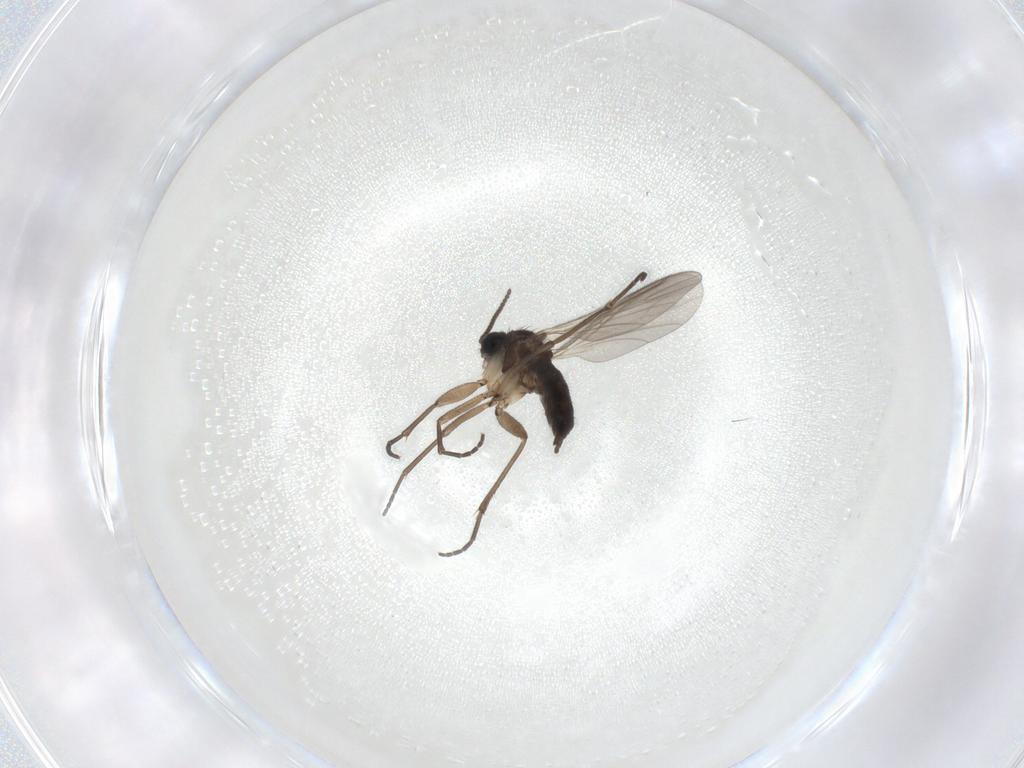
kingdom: Animalia
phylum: Arthropoda
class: Insecta
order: Diptera
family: Sciaridae
